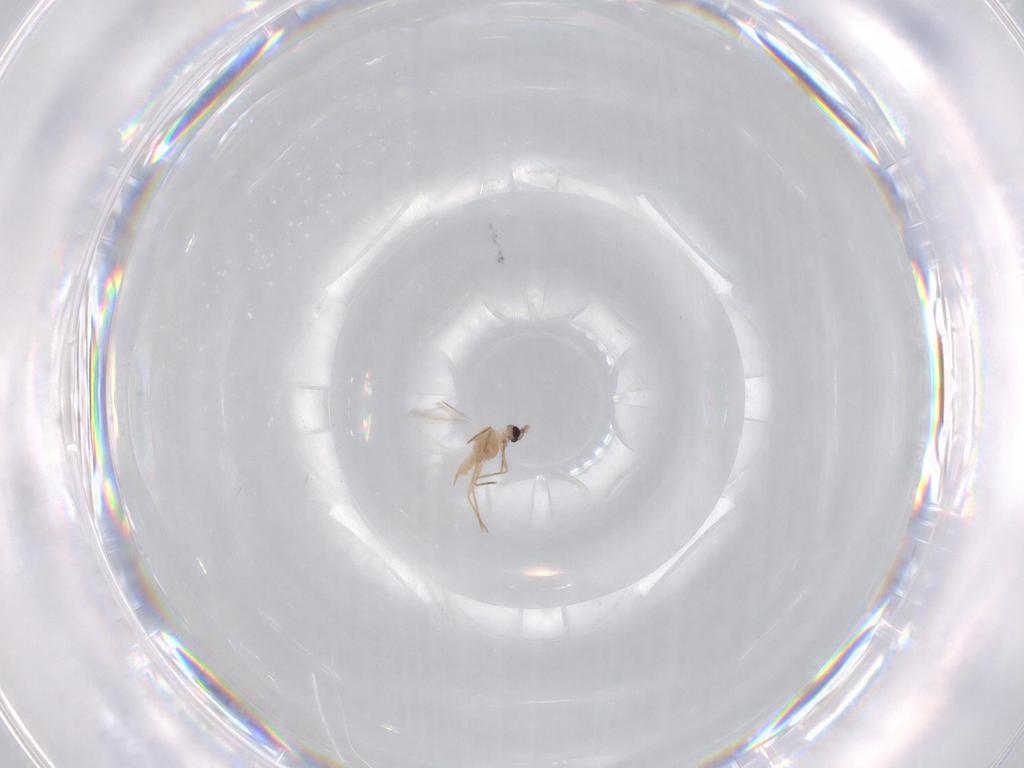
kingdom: Animalia
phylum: Arthropoda
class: Insecta
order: Hemiptera
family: Coccoidea_incertae_sedis
